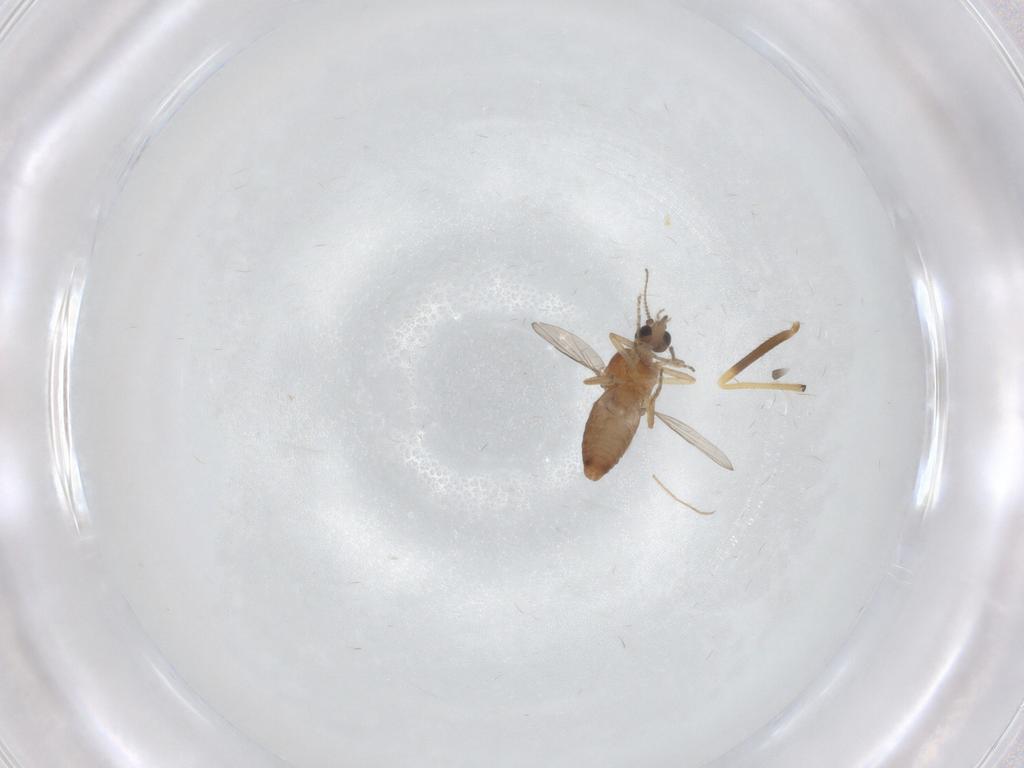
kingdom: Animalia
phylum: Arthropoda
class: Insecta
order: Diptera
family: Ceratopogonidae
